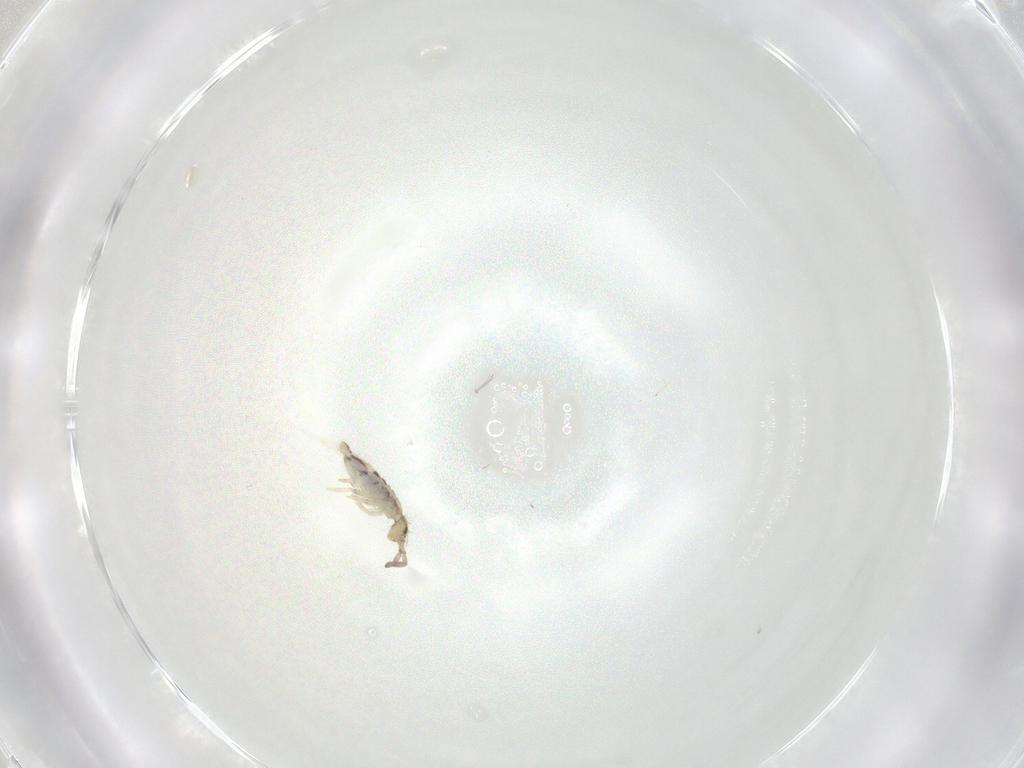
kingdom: Animalia
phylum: Arthropoda
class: Collembola
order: Entomobryomorpha
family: Entomobryidae
